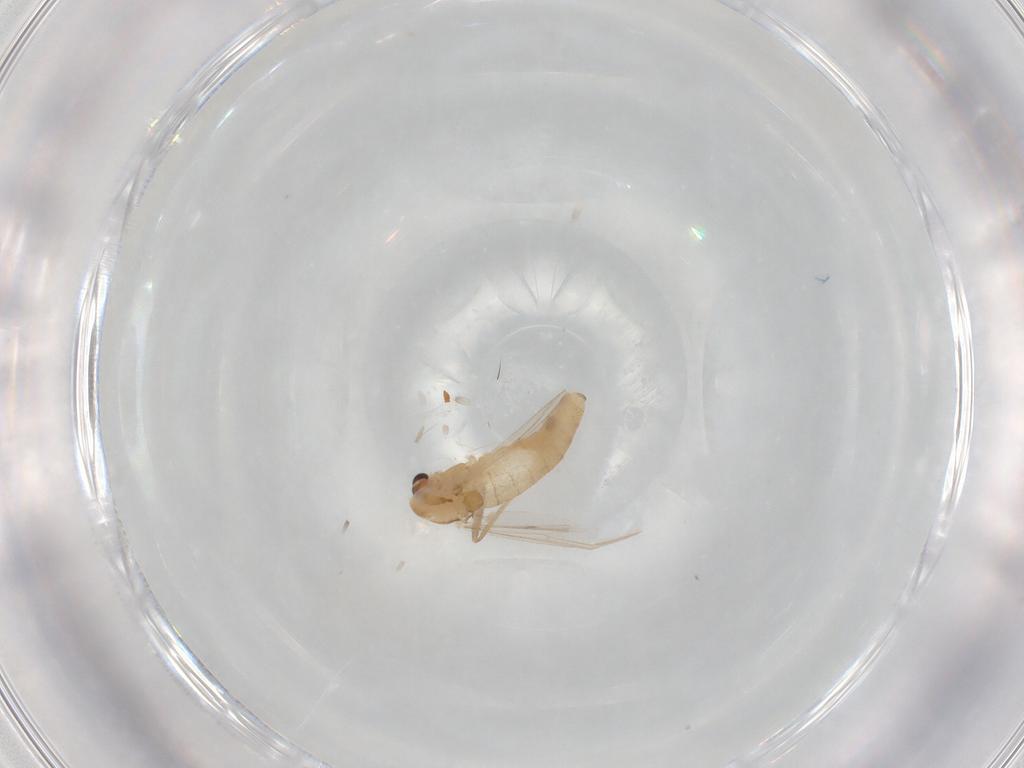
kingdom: Animalia
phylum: Arthropoda
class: Insecta
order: Diptera
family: Chironomidae
